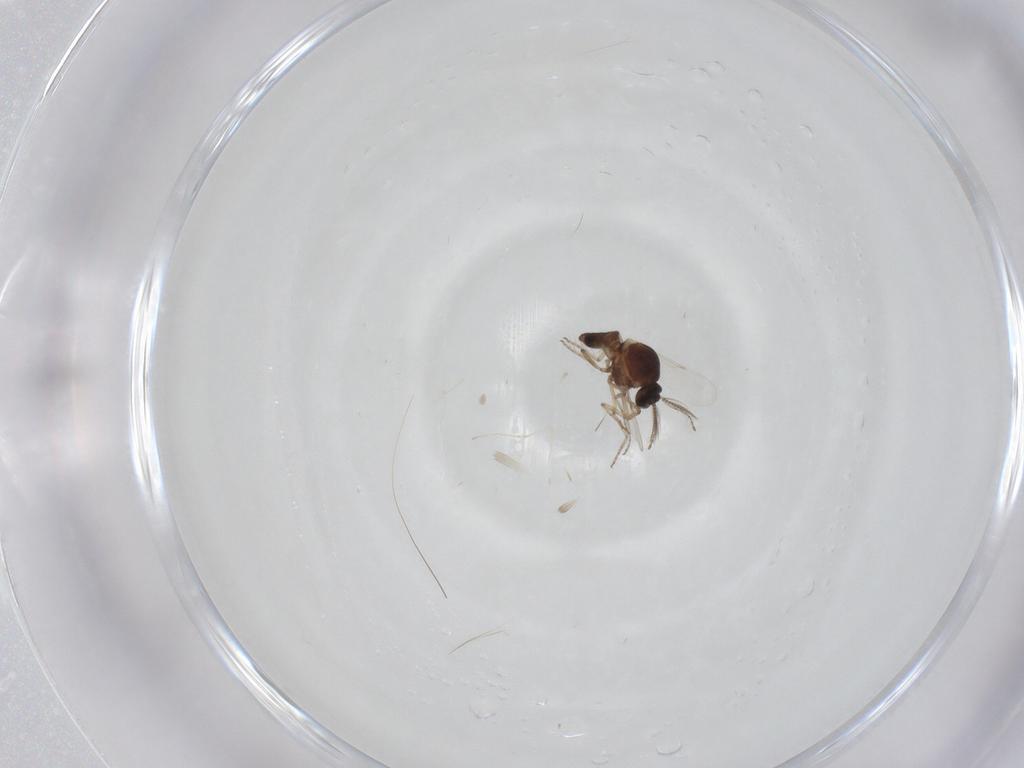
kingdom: Animalia
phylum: Arthropoda
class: Insecta
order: Diptera
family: Ceratopogonidae
